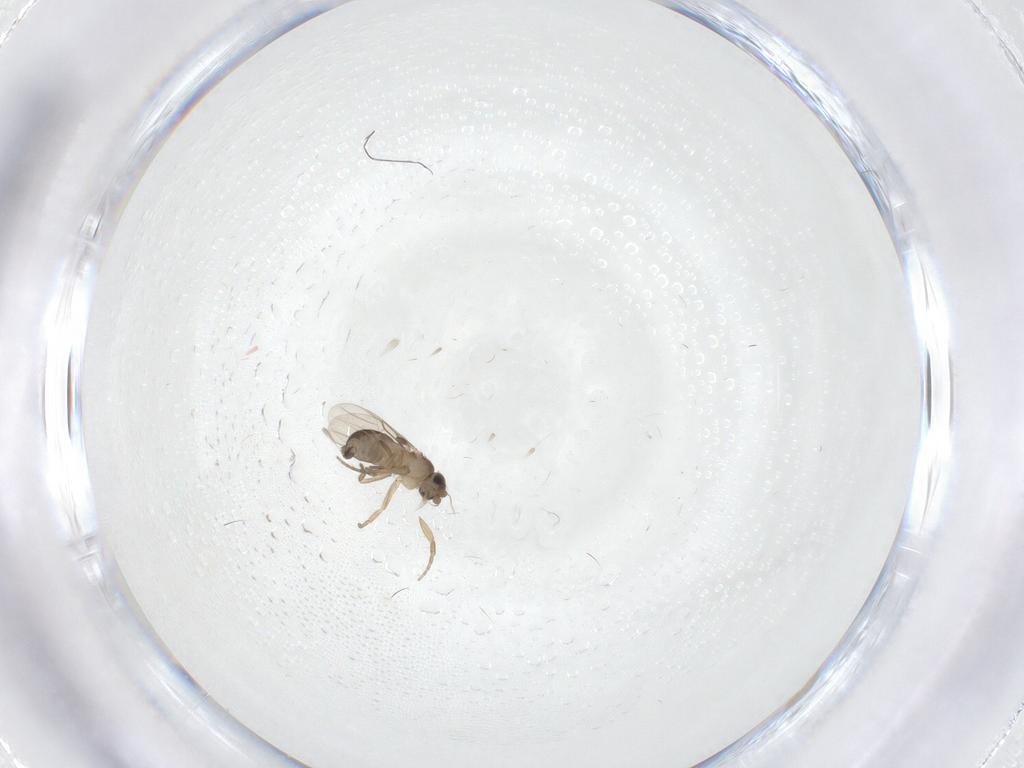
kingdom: Animalia
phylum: Arthropoda
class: Insecta
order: Diptera
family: Phoridae
